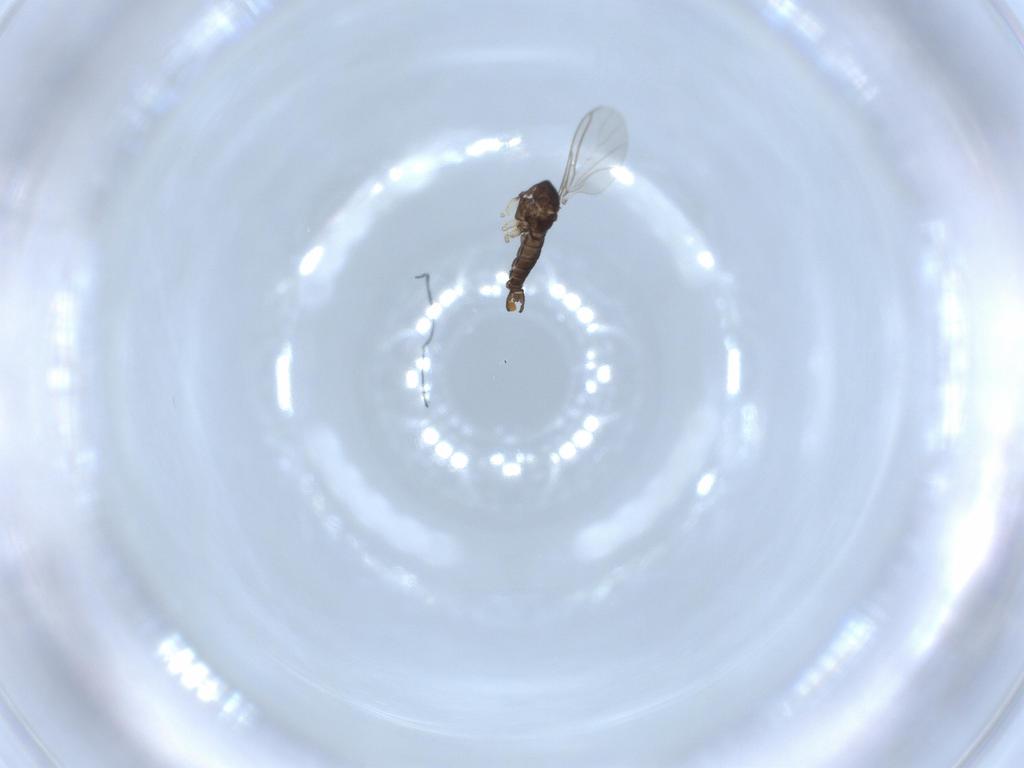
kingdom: Animalia
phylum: Arthropoda
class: Insecta
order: Diptera
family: Sciaridae
